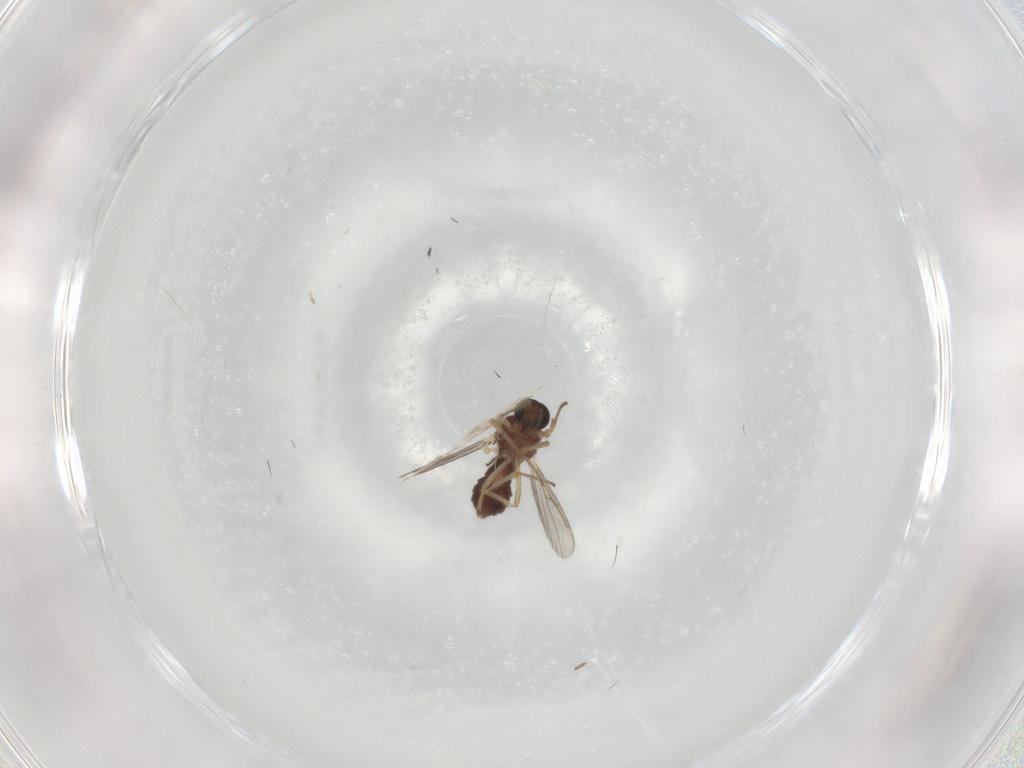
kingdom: Animalia
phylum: Arthropoda
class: Insecta
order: Diptera
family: Ceratopogonidae
